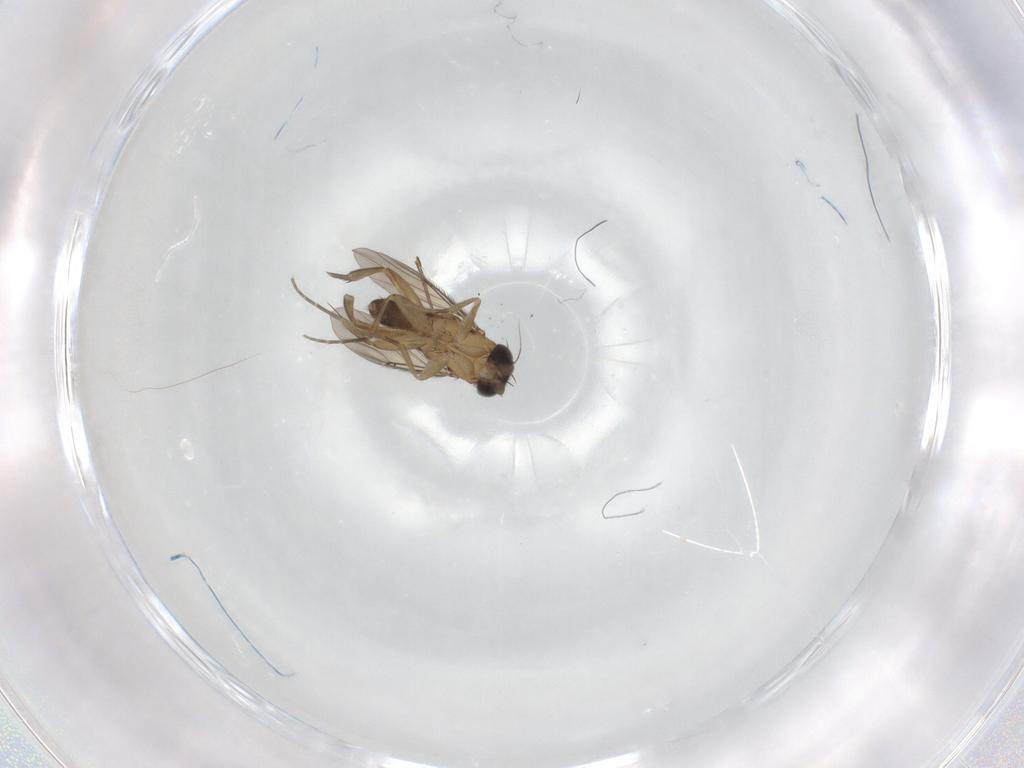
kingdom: Animalia
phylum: Arthropoda
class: Insecta
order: Diptera
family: Phoridae
